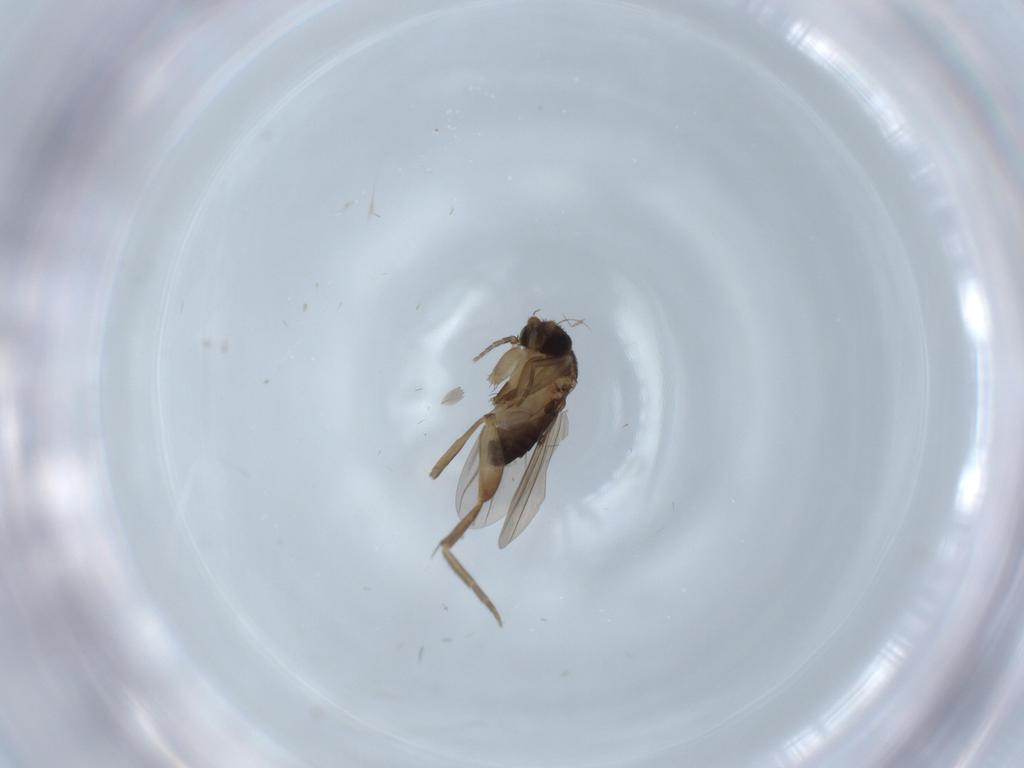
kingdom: Animalia
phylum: Arthropoda
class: Insecta
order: Diptera
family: Psychodidae
